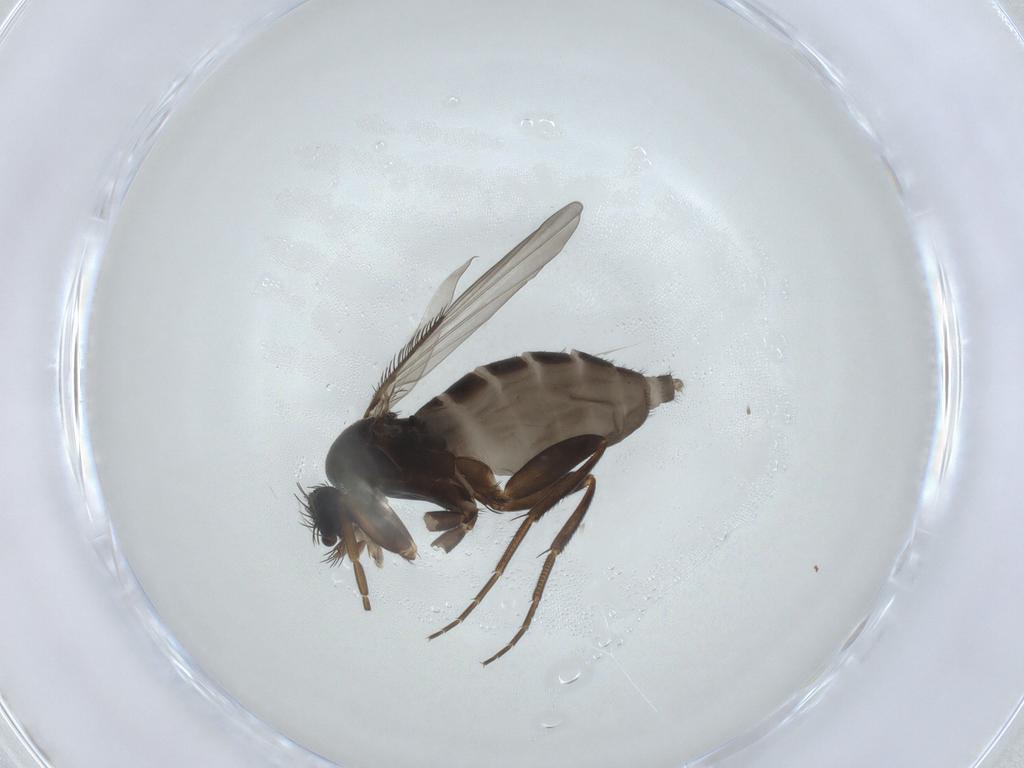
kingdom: Animalia
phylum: Arthropoda
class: Insecta
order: Diptera
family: Phoridae
